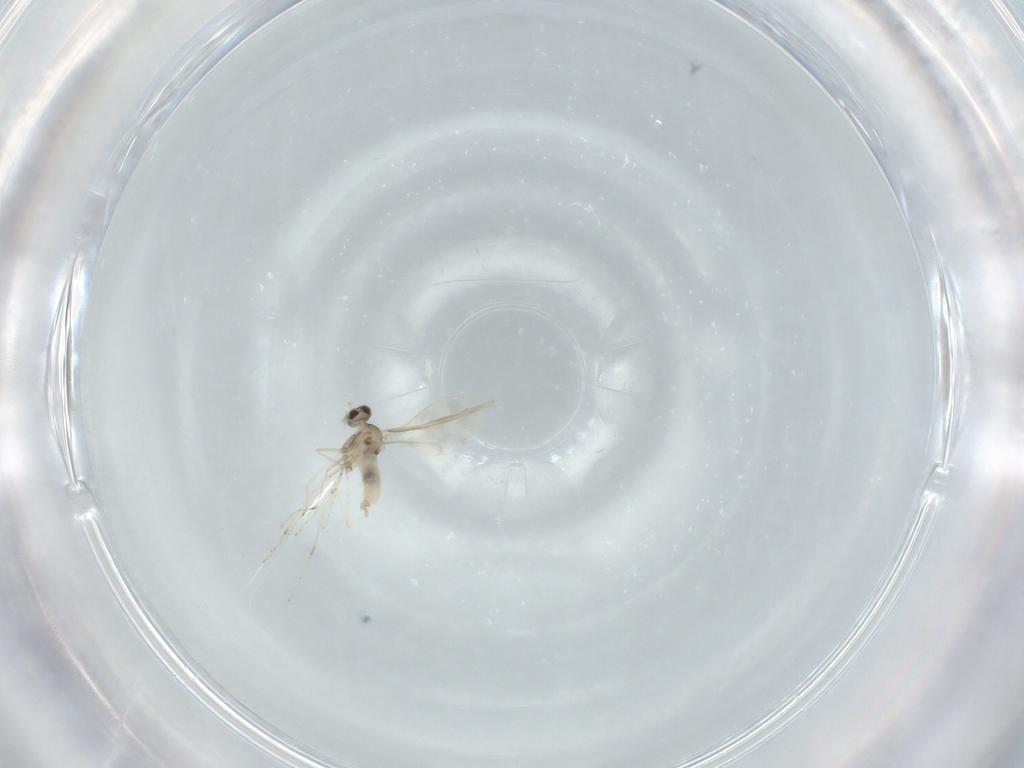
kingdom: Animalia
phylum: Arthropoda
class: Insecta
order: Diptera
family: Cecidomyiidae
